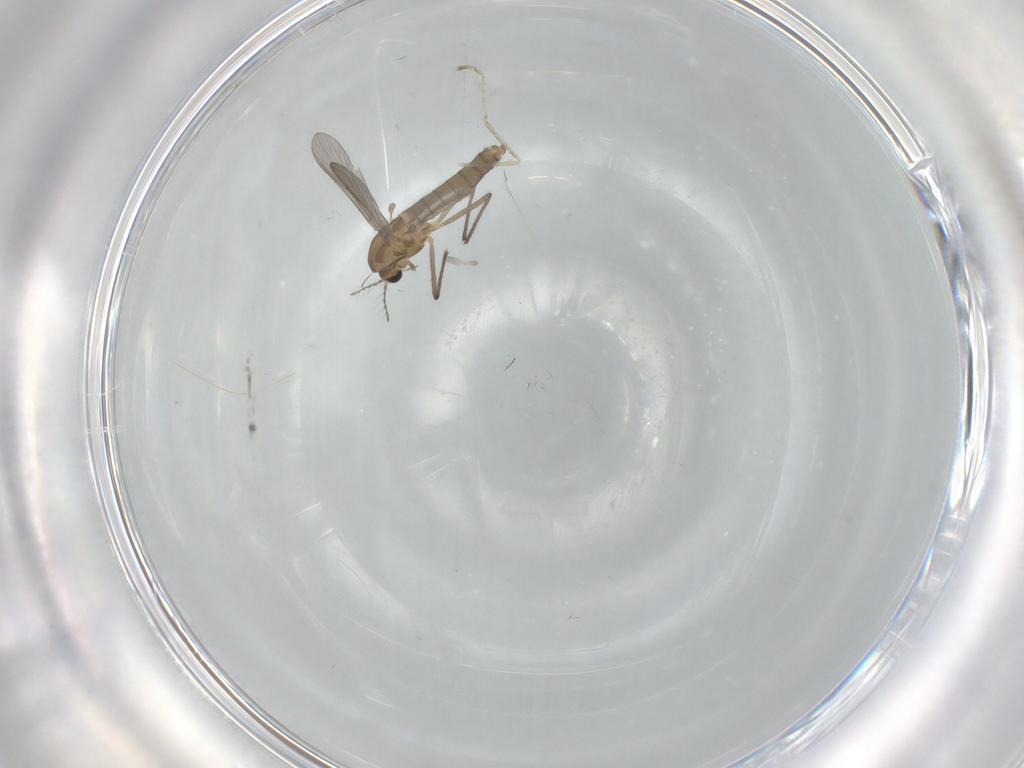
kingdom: Animalia
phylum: Arthropoda
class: Insecta
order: Diptera
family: Cecidomyiidae
